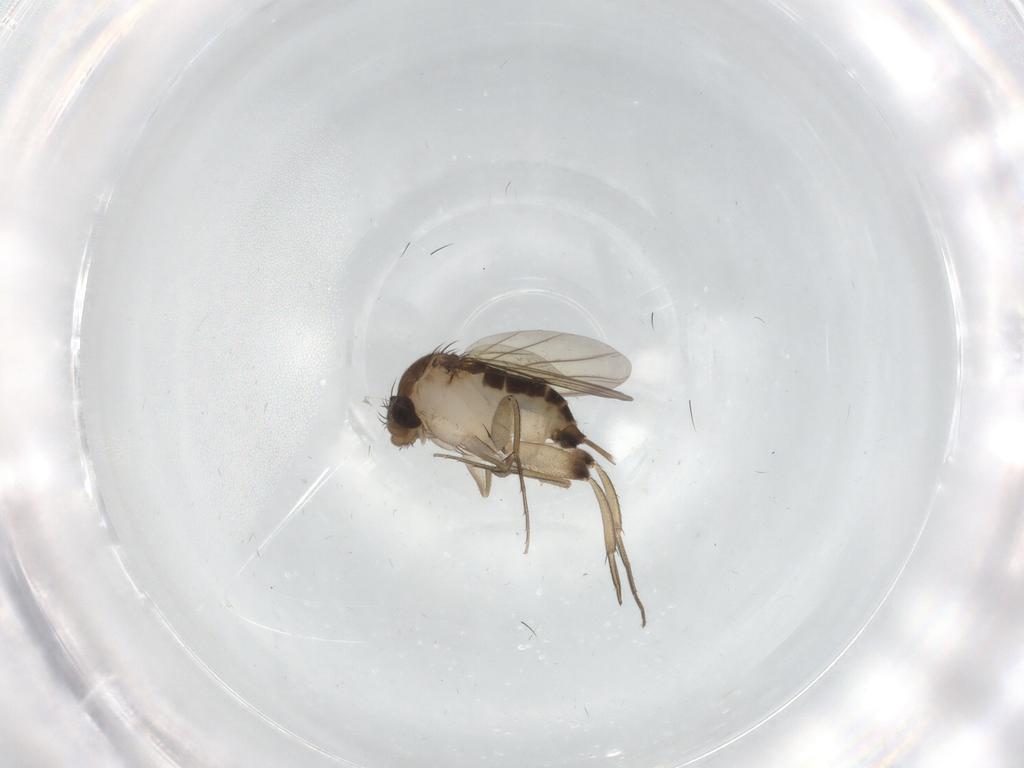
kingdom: Animalia
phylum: Arthropoda
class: Insecta
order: Diptera
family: Phoridae
